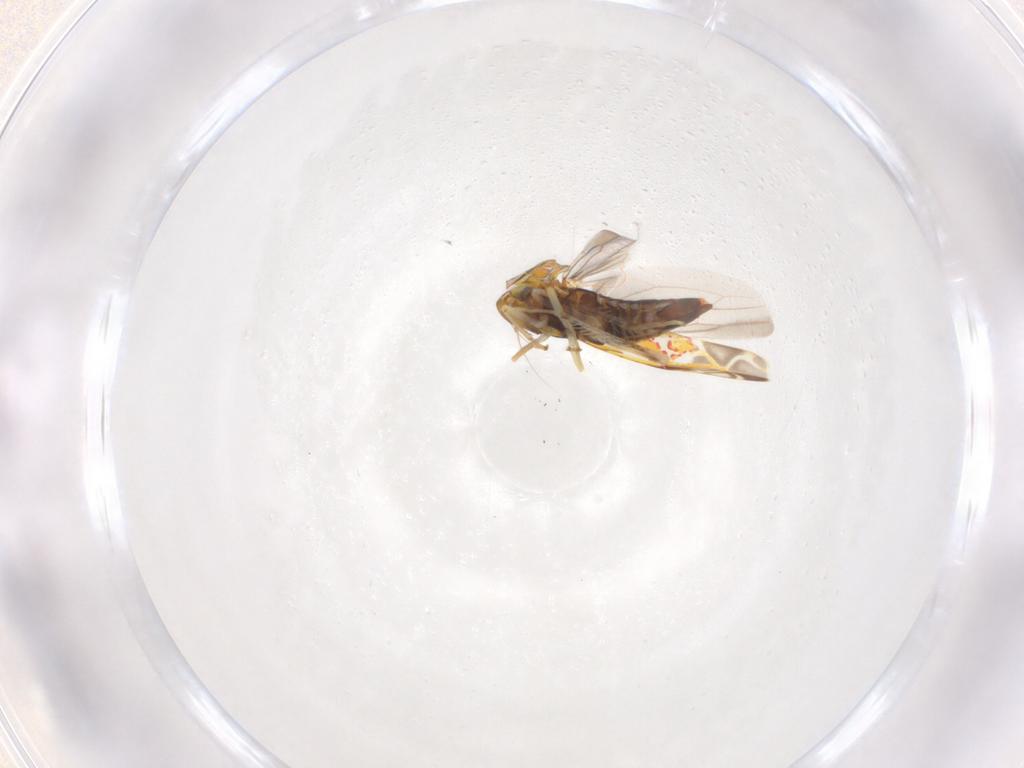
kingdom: Animalia
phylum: Arthropoda
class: Insecta
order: Hemiptera
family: Cicadellidae
